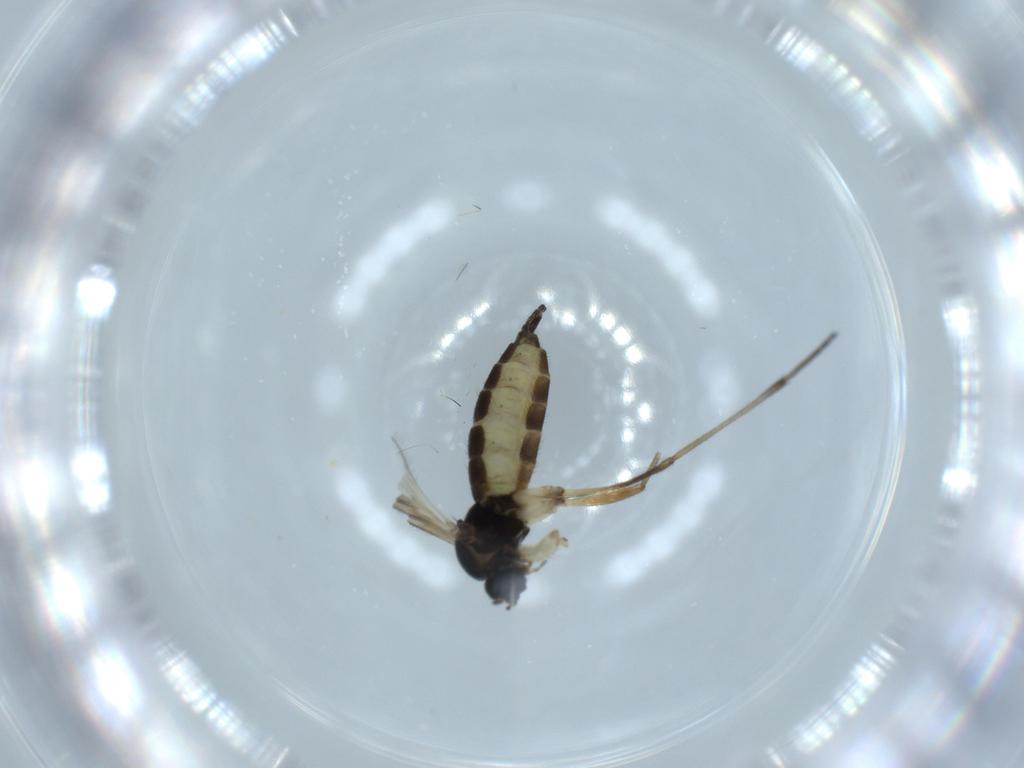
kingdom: Animalia
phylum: Arthropoda
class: Insecta
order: Diptera
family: Sciaridae
